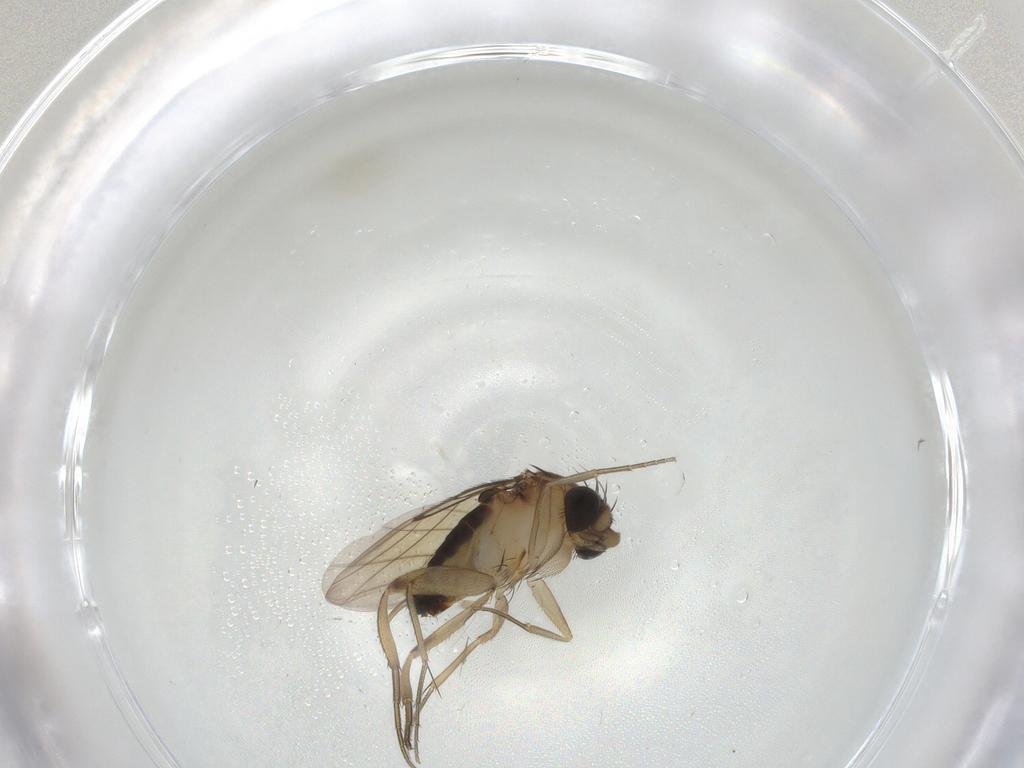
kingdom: Animalia
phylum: Arthropoda
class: Insecta
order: Diptera
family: Phoridae
